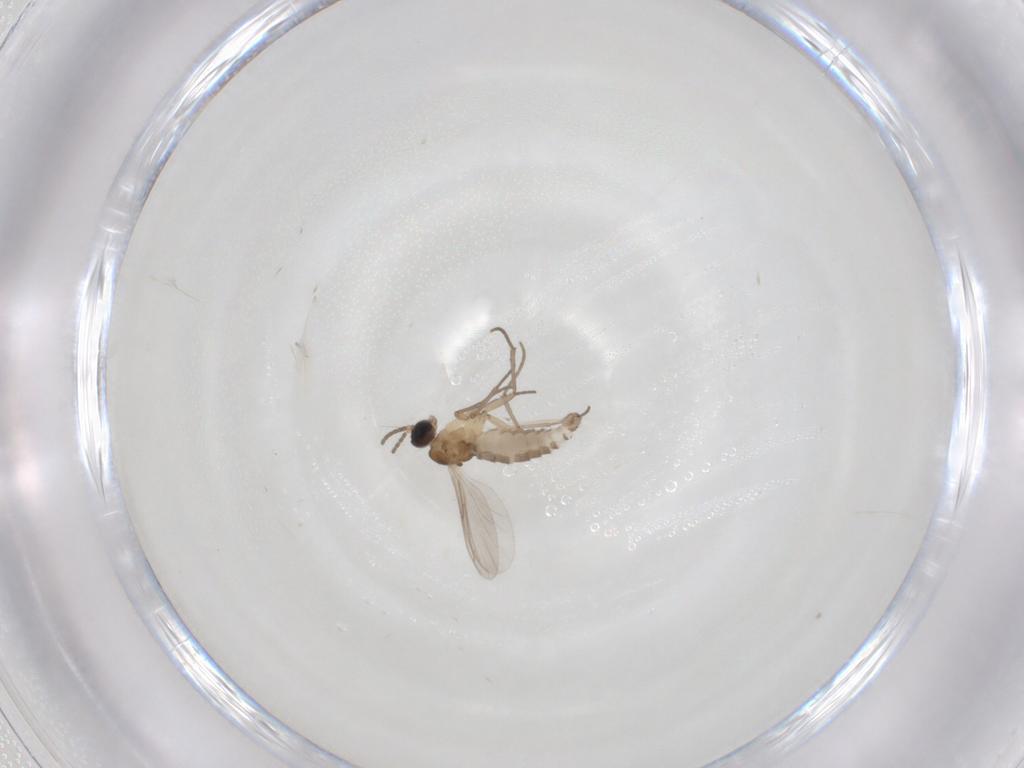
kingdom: Animalia
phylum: Arthropoda
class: Insecta
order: Diptera
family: Sciaridae
